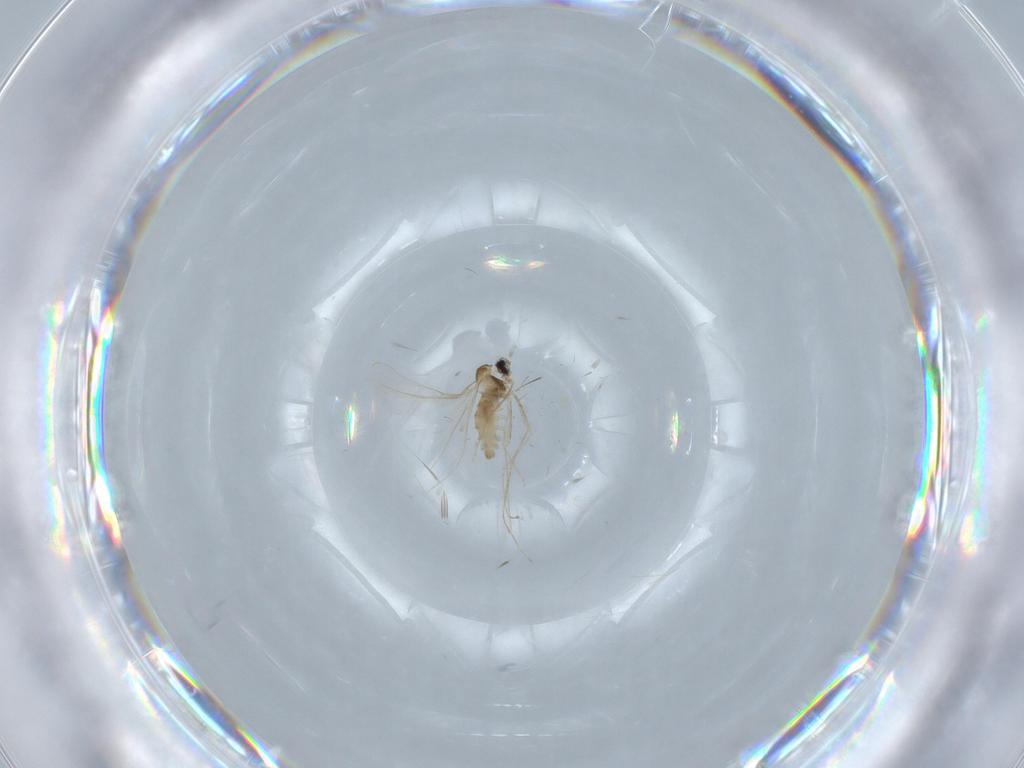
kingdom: Animalia
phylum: Arthropoda
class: Insecta
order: Diptera
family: Cecidomyiidae
